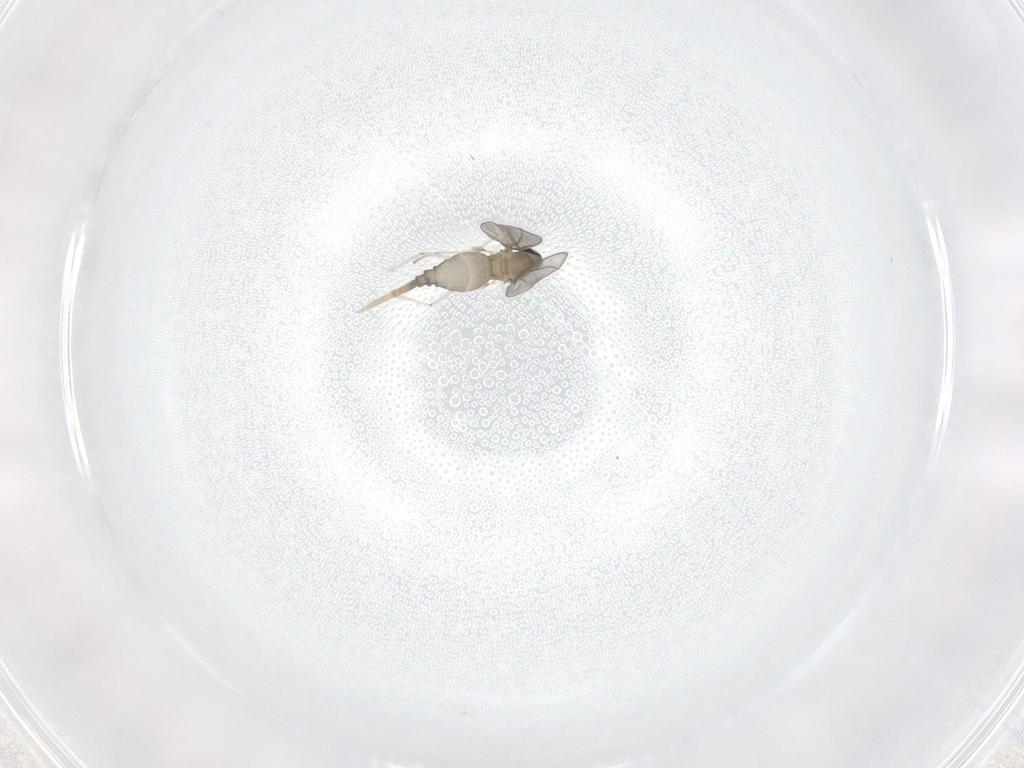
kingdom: Animalia
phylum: Arthropoda
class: Insecta
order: Diptera
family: Cecidomyiidae
